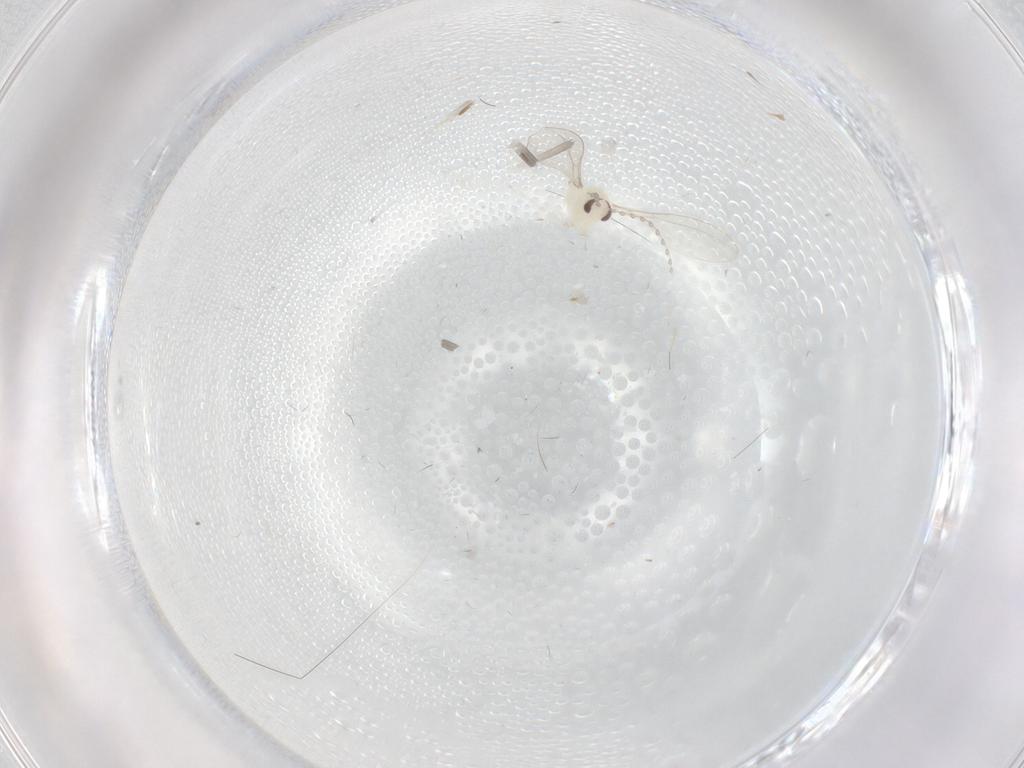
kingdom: Animalia
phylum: Arthropoda
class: Insecta
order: Diptera
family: Cecidomyiidae
